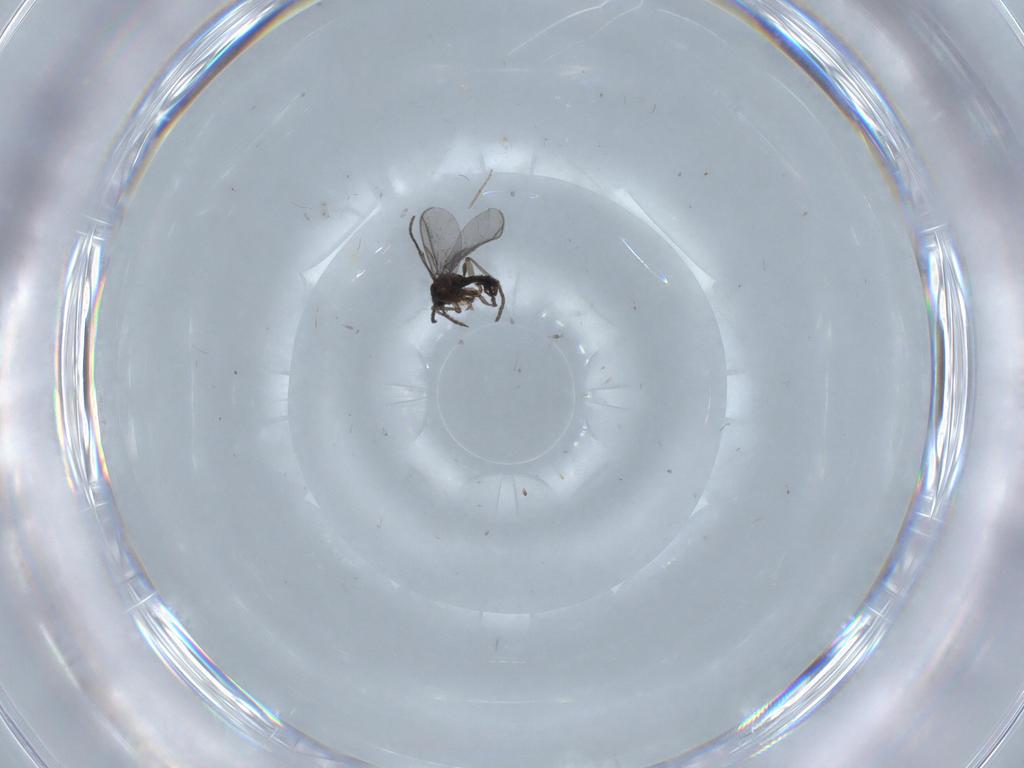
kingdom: Animalia
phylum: Arthropoda
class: Insecta
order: Diptera
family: Chironomidae
